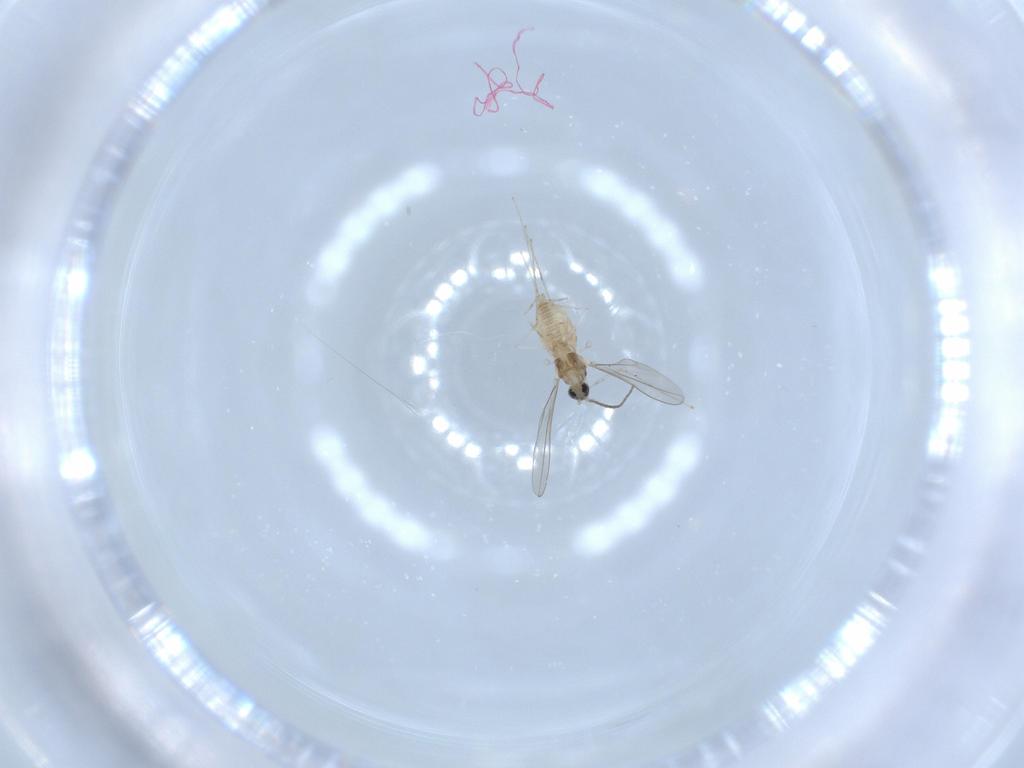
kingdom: Animalia
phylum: Arthropoda
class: Insecta
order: Diptera
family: Cecidomyiidae
